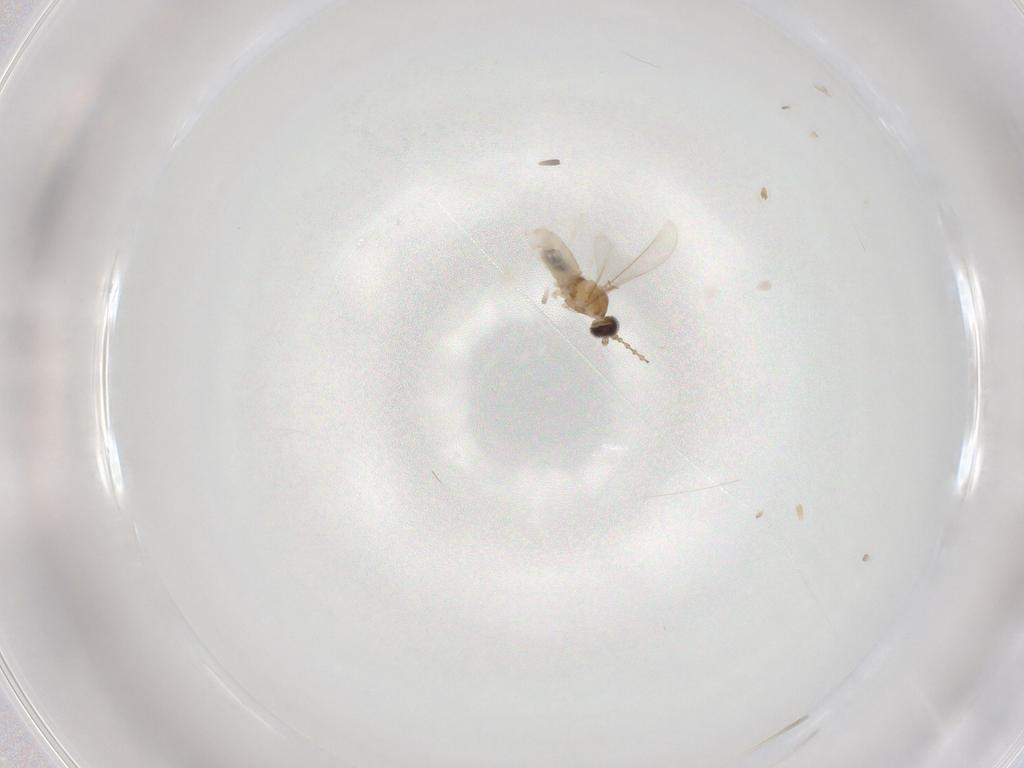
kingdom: Animalia
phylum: Arthropoda
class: Insecta
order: Diptera
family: Cecidomyiidae
